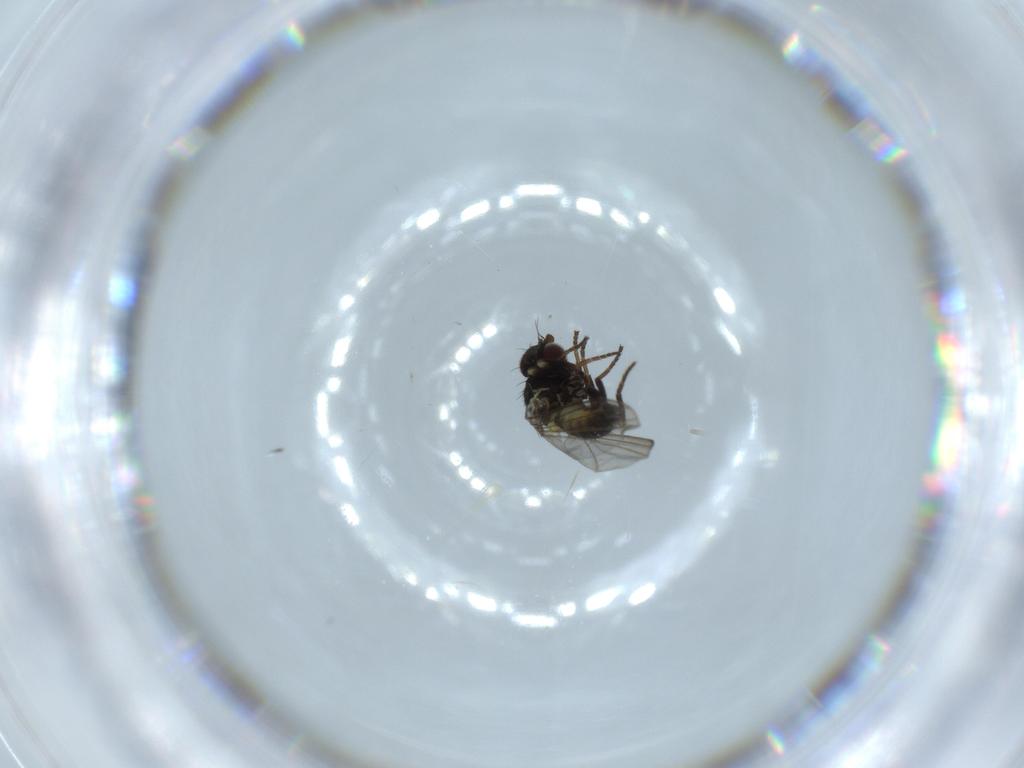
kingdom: Animalia
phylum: Arthropoda
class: Insecta
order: Diptera
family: Agromyzidae
